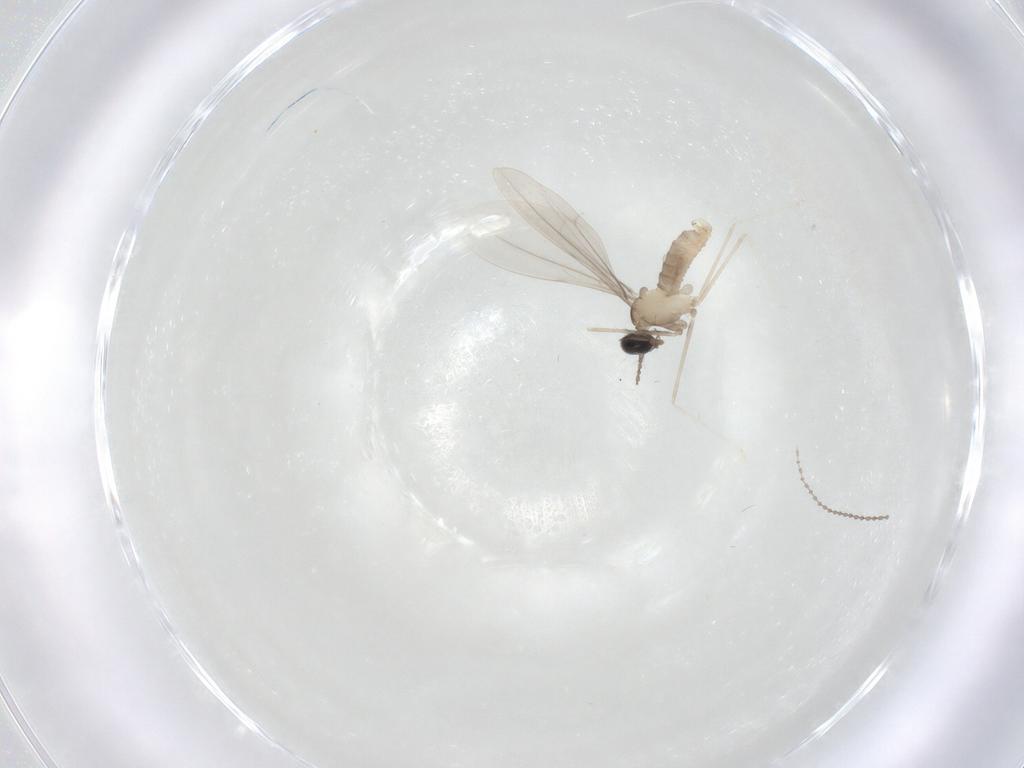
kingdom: Animalia
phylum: Arthropoda
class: Insecta
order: Diptera
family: Cecidomyiidae
